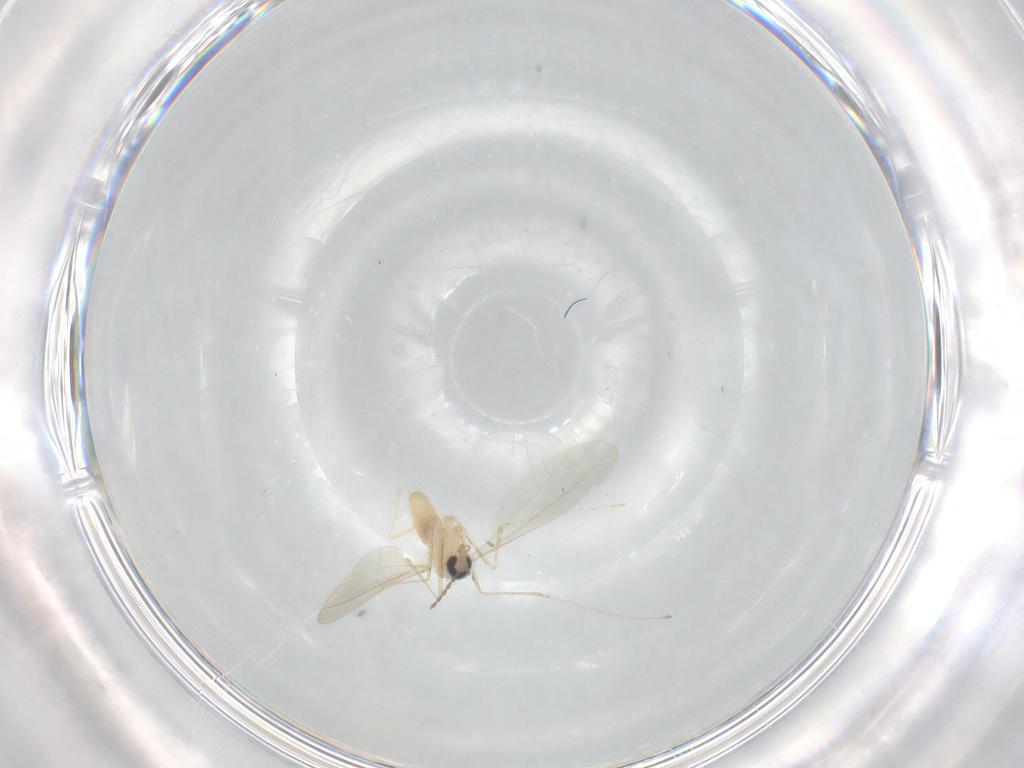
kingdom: Animalia
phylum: Arthropoda
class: Insecta
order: Diptera
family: Cecidomyiidae
